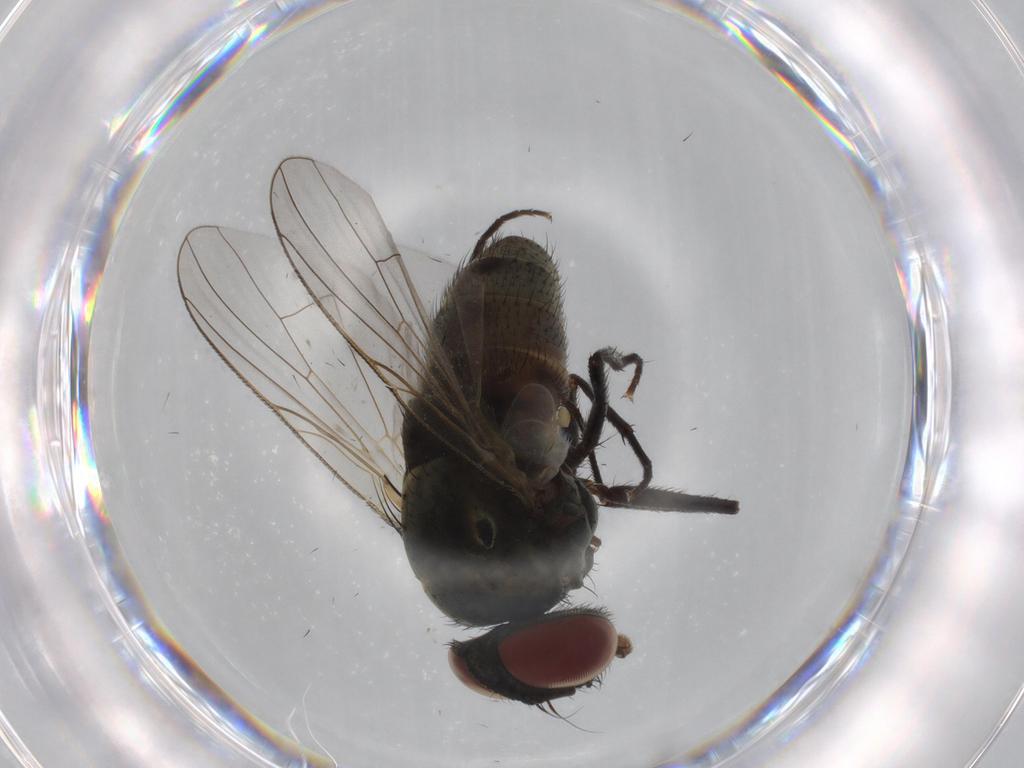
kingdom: Animalia
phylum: Arthropoda
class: Insecta
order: Diptera
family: Muscidae
